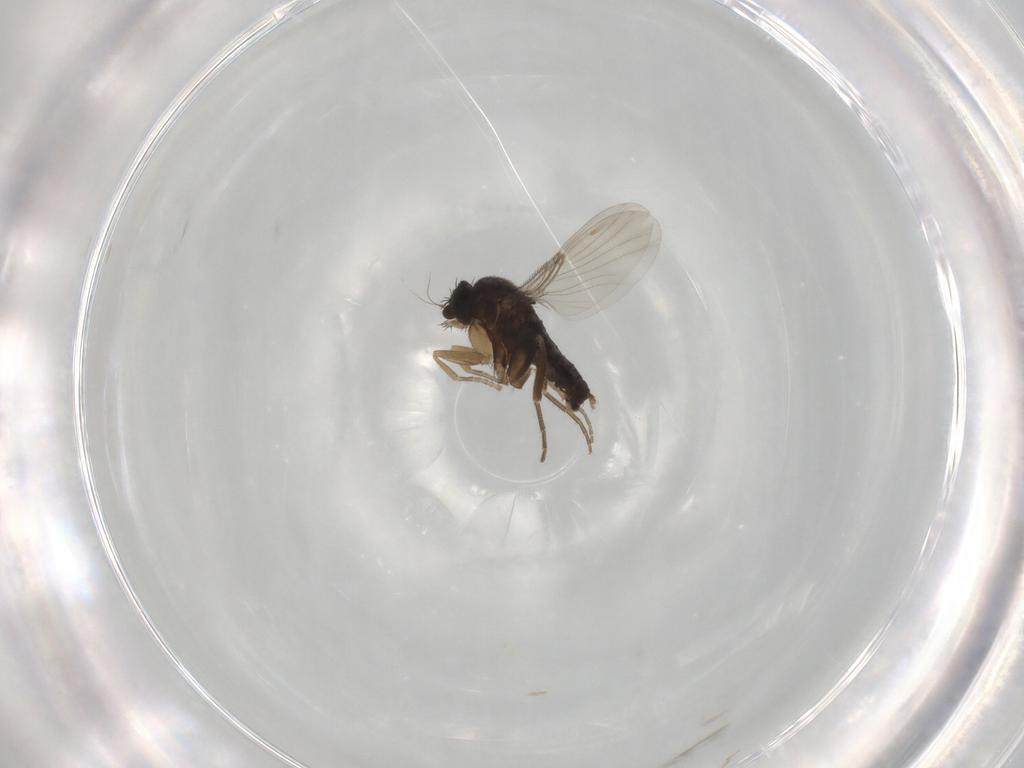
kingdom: Animalia
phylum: Arthropoda
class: Insecta
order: Diptera
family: Phoridae
